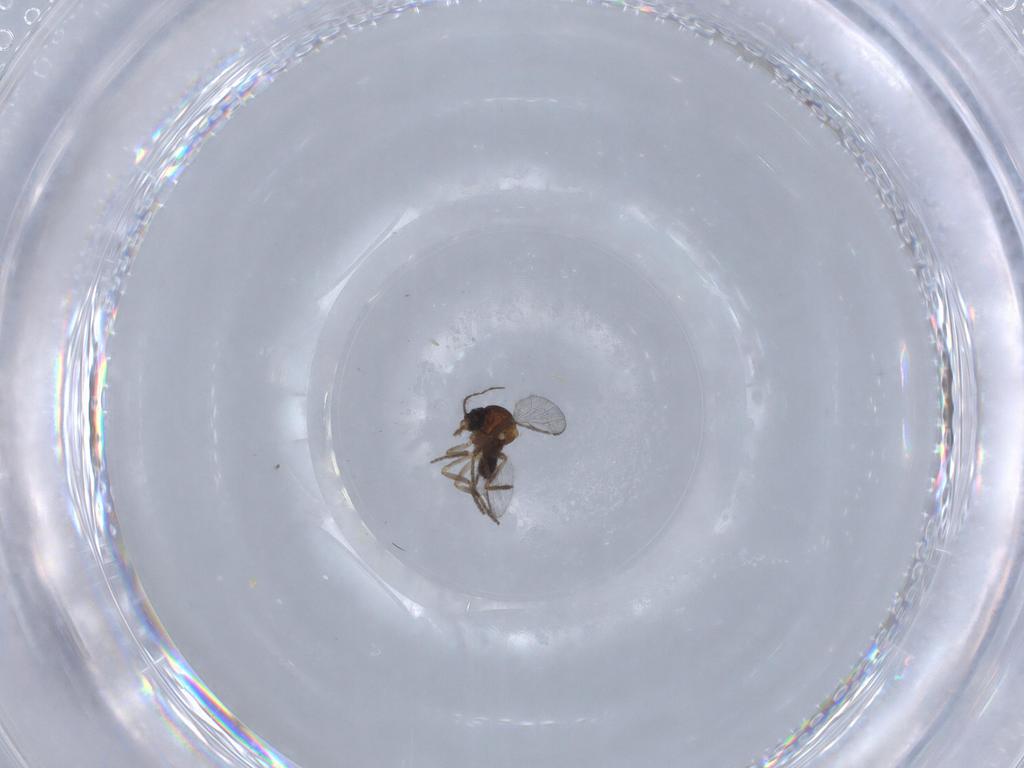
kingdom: Animalia
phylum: Arthropoda
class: Insecta
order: Diptera
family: Ceratopogonidae
